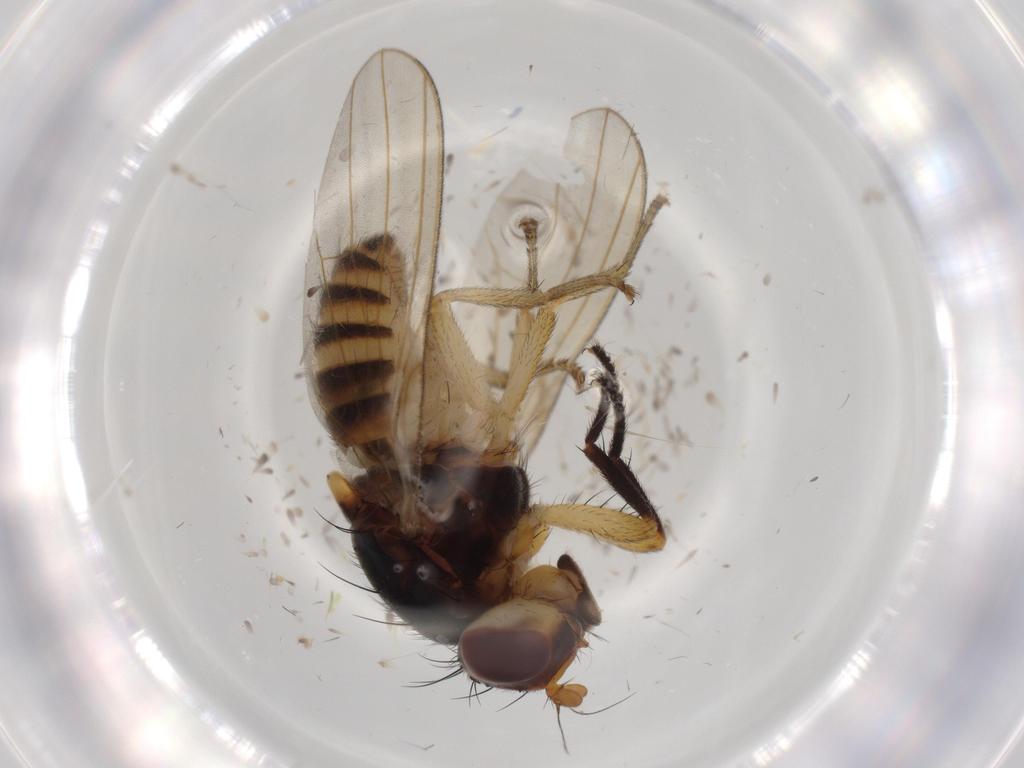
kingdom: Animalia
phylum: Arthropoda
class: Insecta
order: Diptera
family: Lauxaniidae
